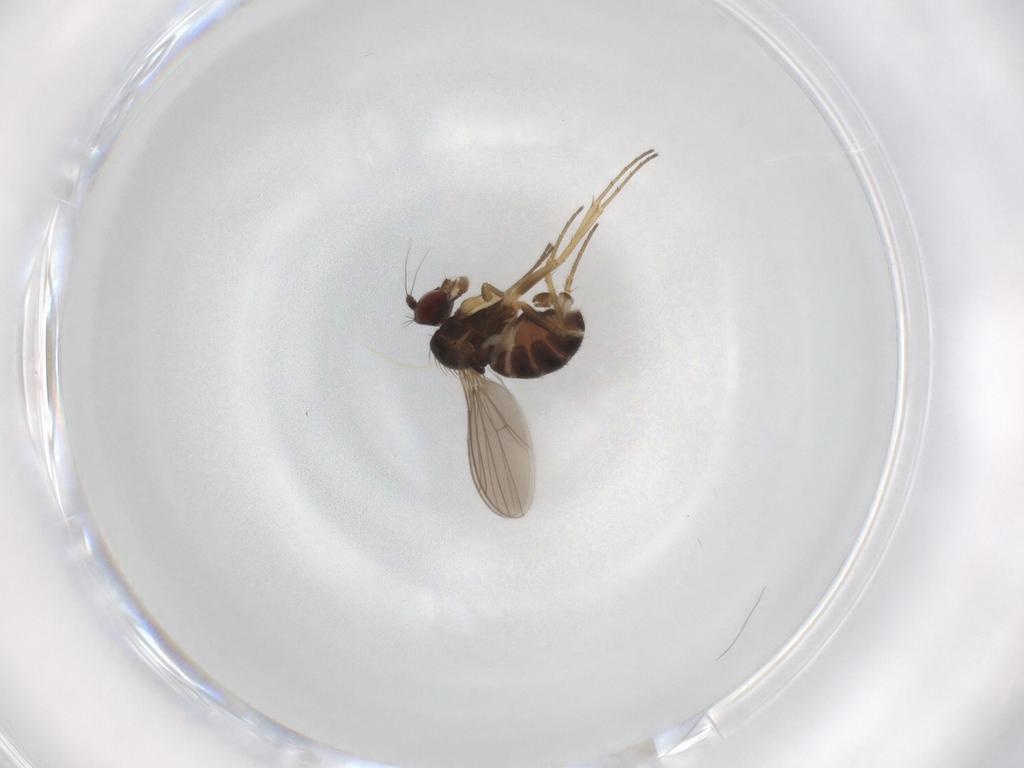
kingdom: Animalia
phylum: Arthropoda
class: Insecta
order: Diptera
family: Dolichopodidae
